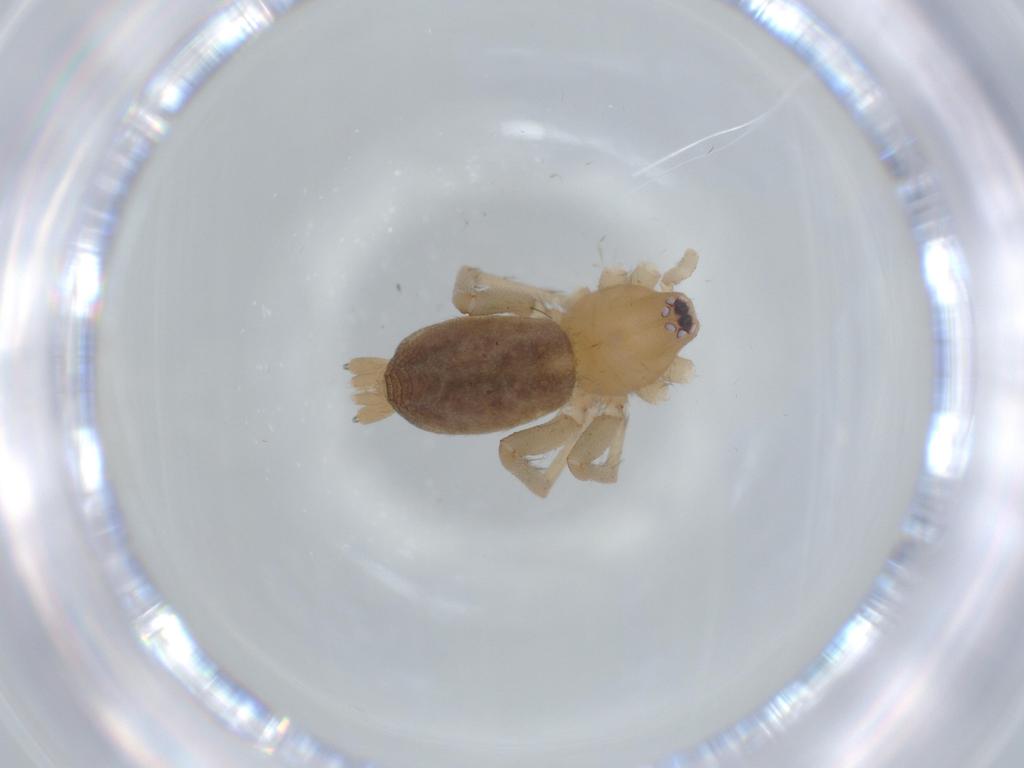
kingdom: Animalia
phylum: Arthropoda
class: Arachnida
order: Araneae
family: Gnaphosidae
